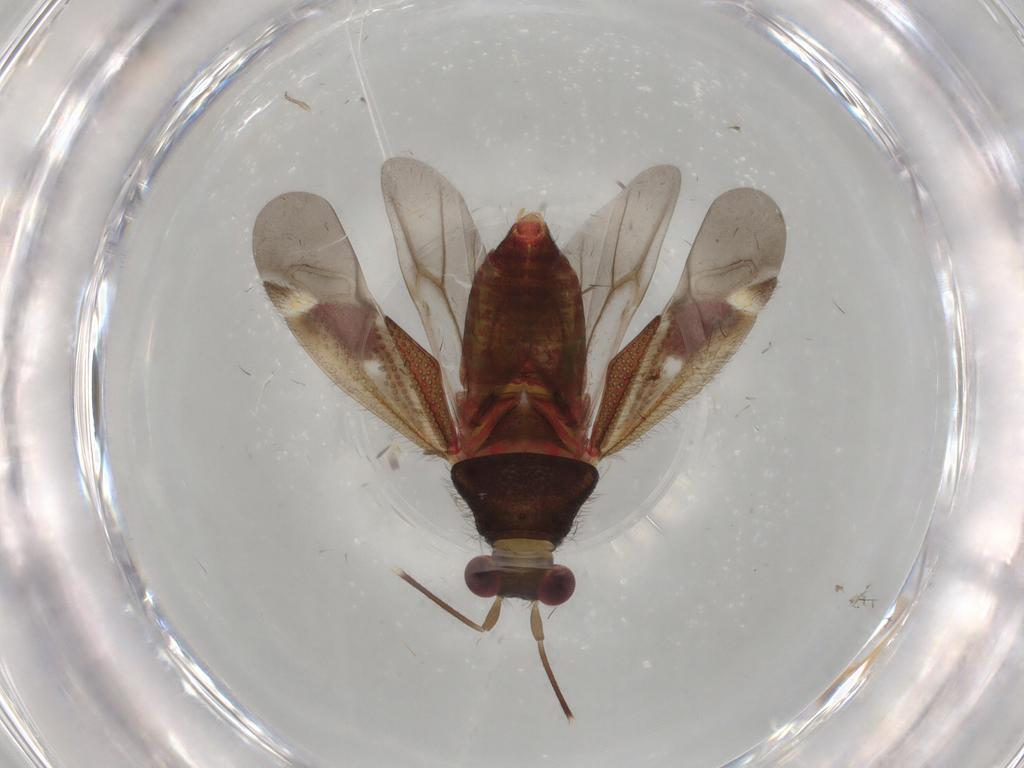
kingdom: Animalia
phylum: Arthropoda
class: Insecta
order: Hemiptera
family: Miridae
